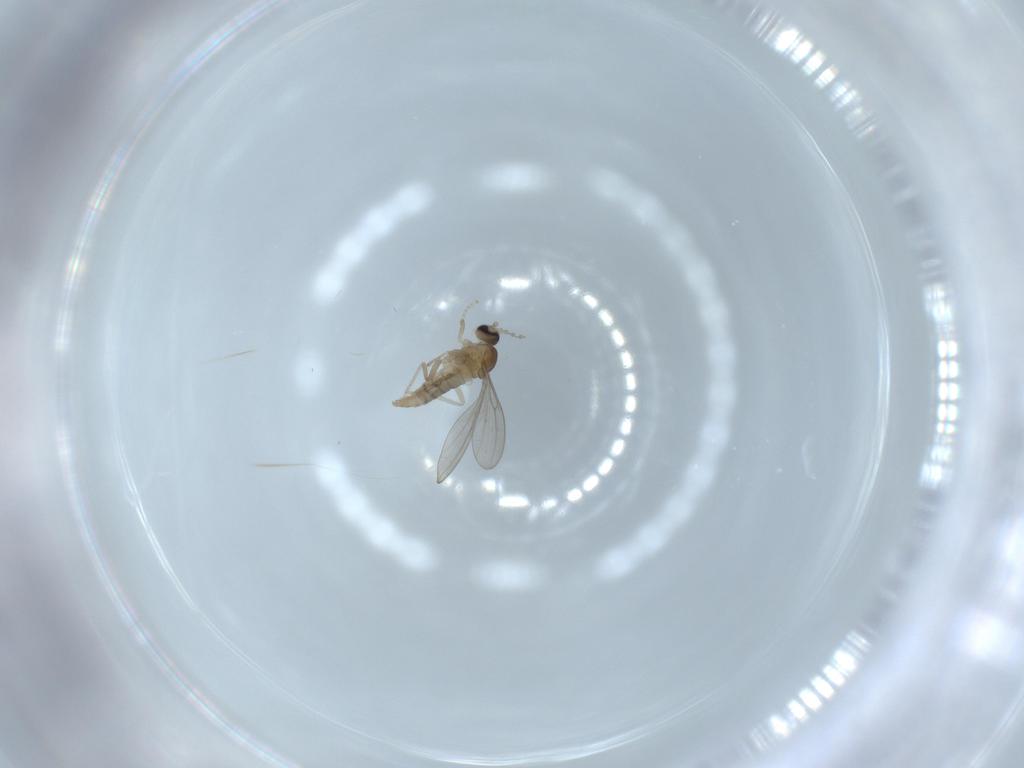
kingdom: Animalia
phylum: Arthropoda
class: Insecta
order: Diptera
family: Cecidomyiidae
